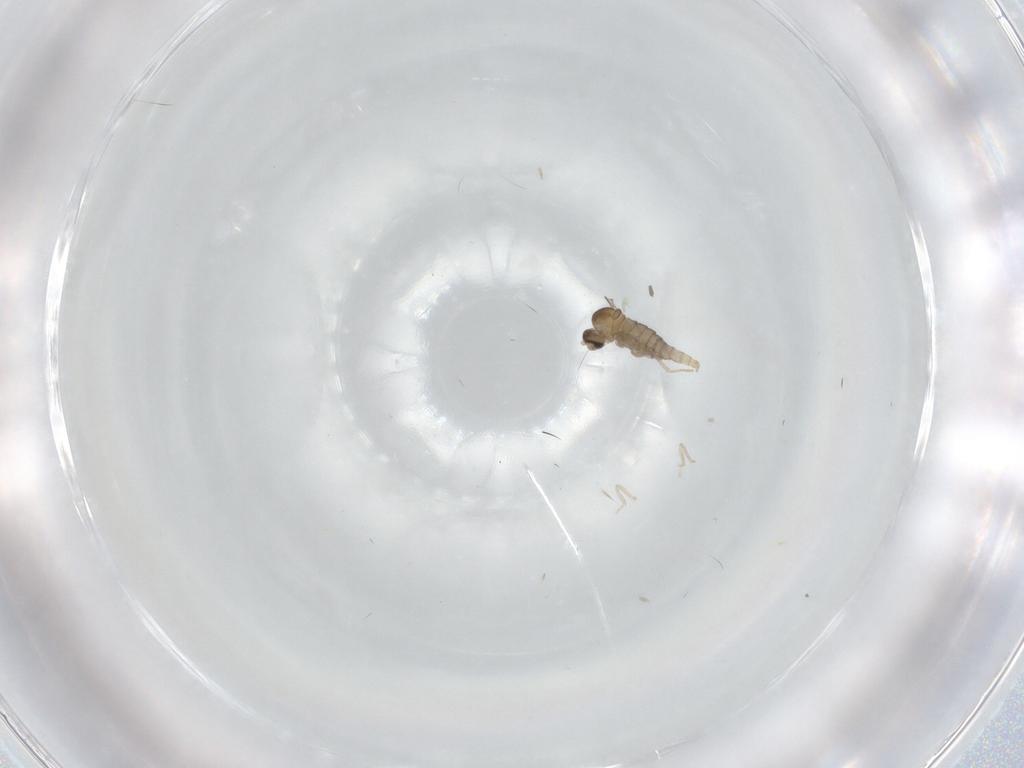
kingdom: Animalia
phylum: Arthropoda
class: Insecta
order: Diptera
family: Cecidomyiidae
